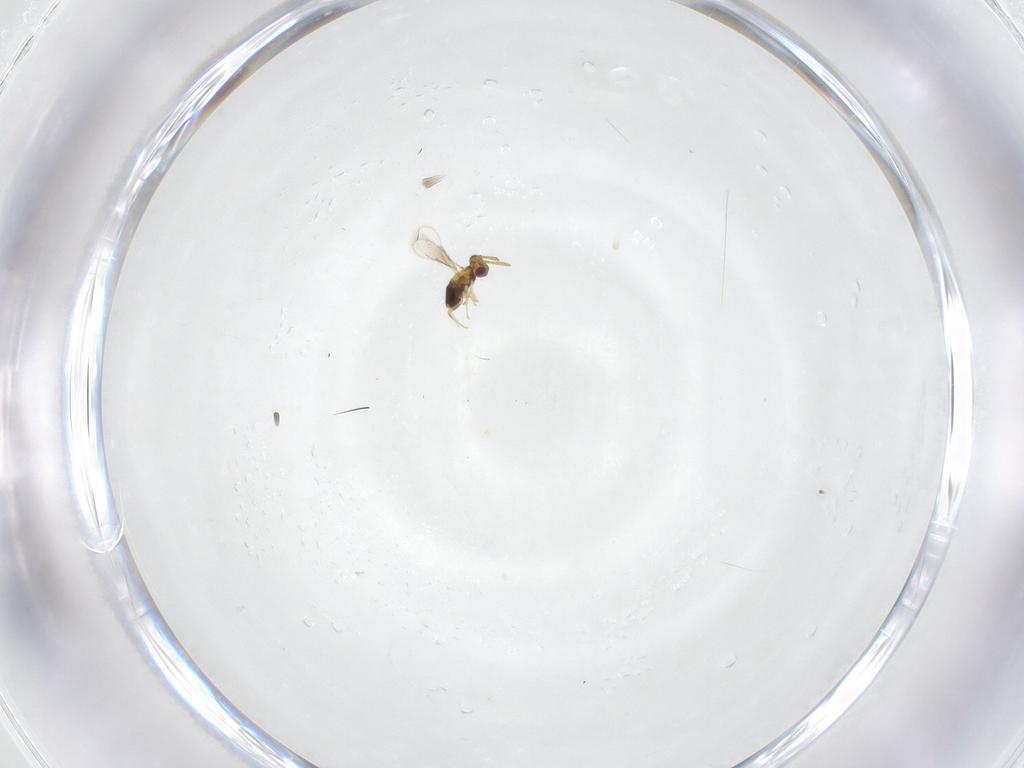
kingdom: Animalia
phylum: Arthropoda
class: Insecta
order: Hymenoptera
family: Aphelinidae
